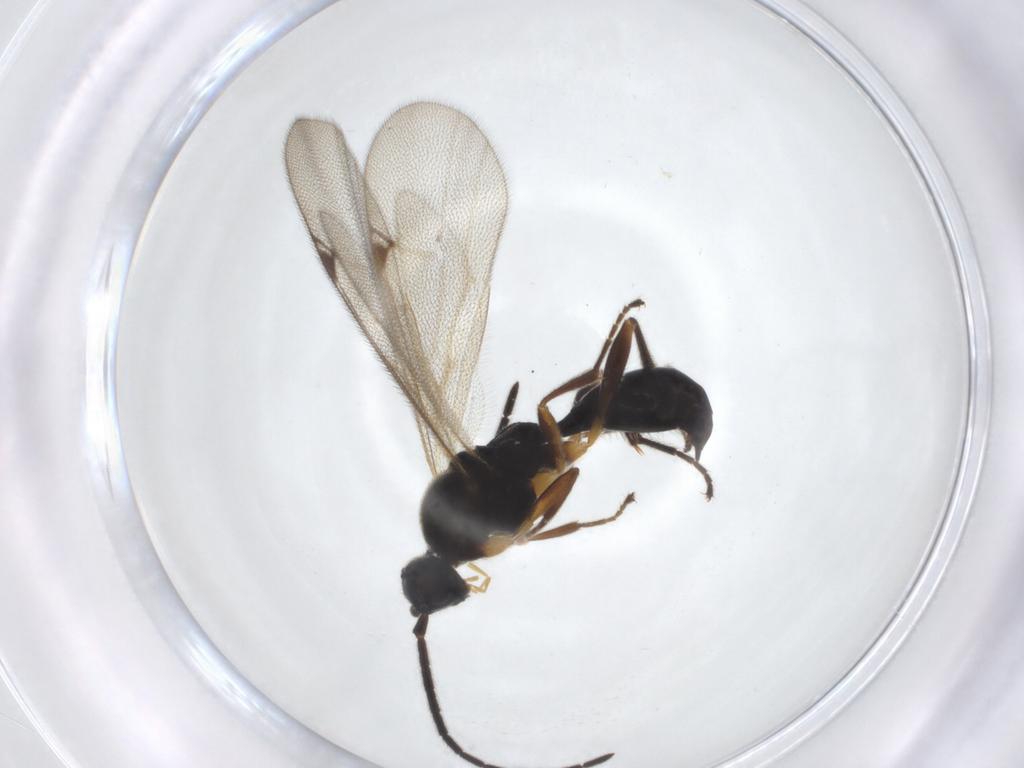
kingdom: Animalia
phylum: Arthropoda
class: Insecta
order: Hymenoptera
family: Proctotrupidae
